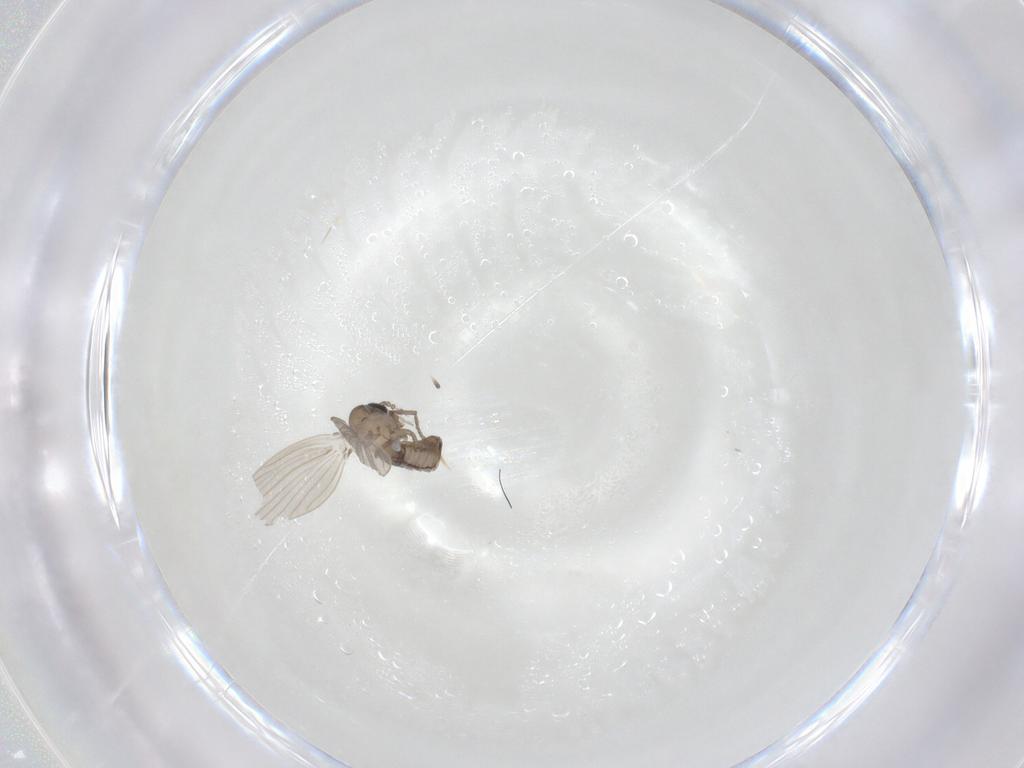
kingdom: Animalia
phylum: Arthropoda
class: Insecta
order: Diptera
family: Psychodidae
